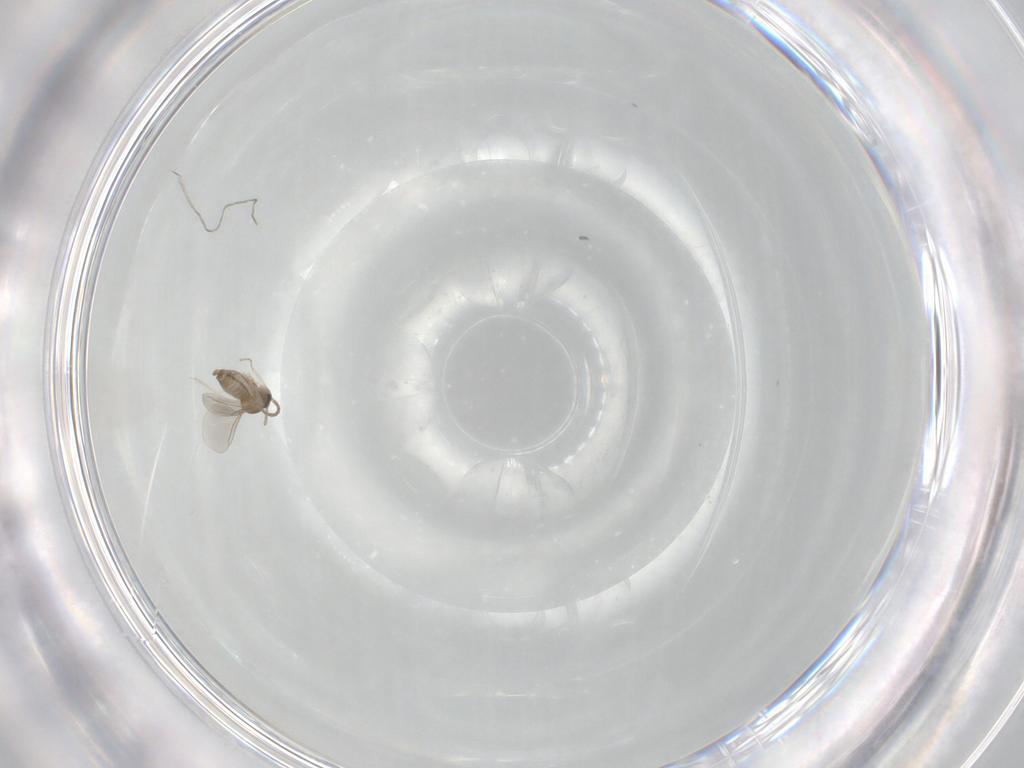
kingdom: Animalia
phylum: Arthropoda
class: Insecta
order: Diptera
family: Cecidomyiidae
